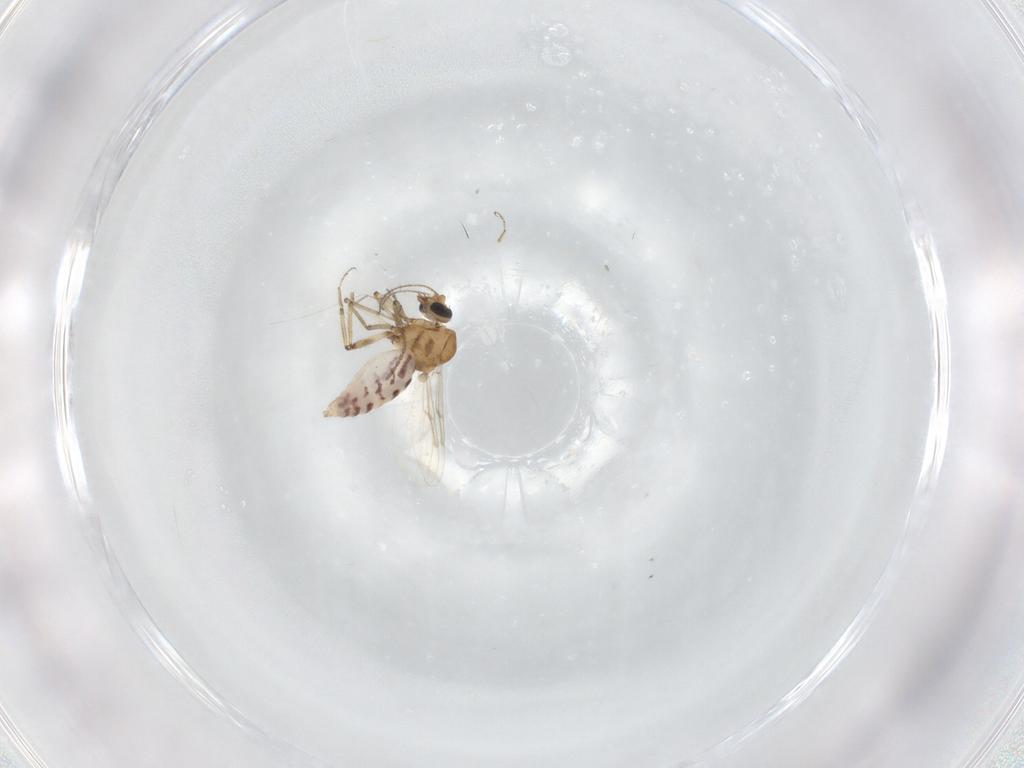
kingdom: Animalia
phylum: Arthropoda
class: Insecta
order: Diptera
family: Ceratopogonidae
